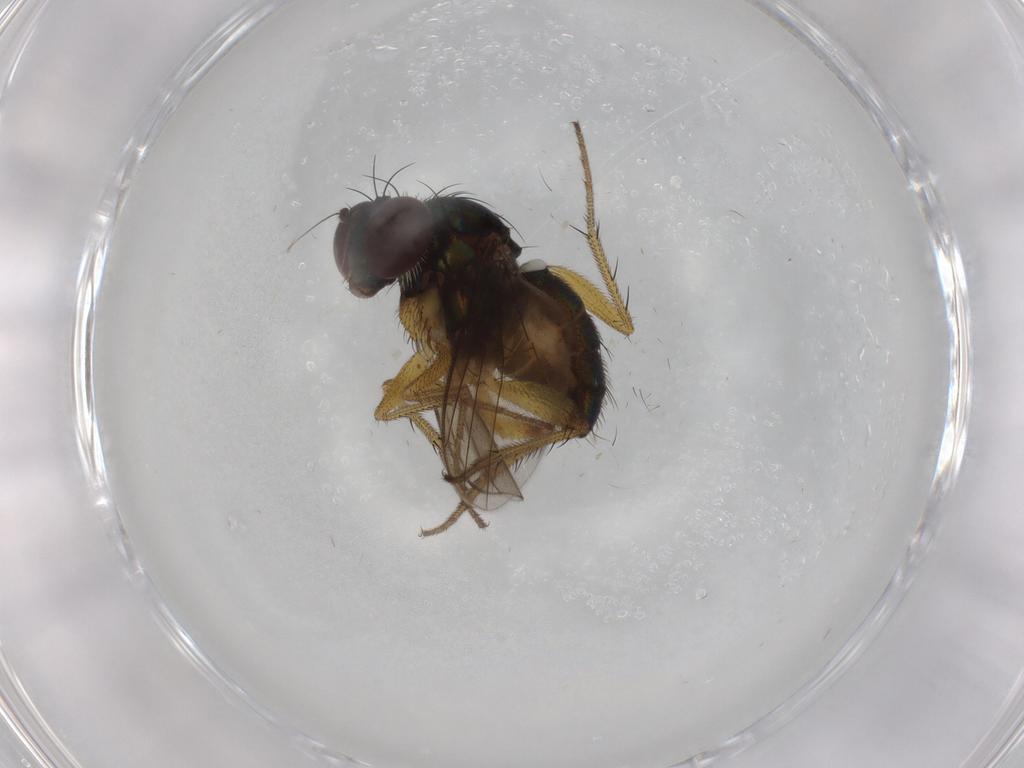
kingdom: Animalia
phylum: Arthropoda
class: Insecta
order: Diptera
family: Dolichopodidae
